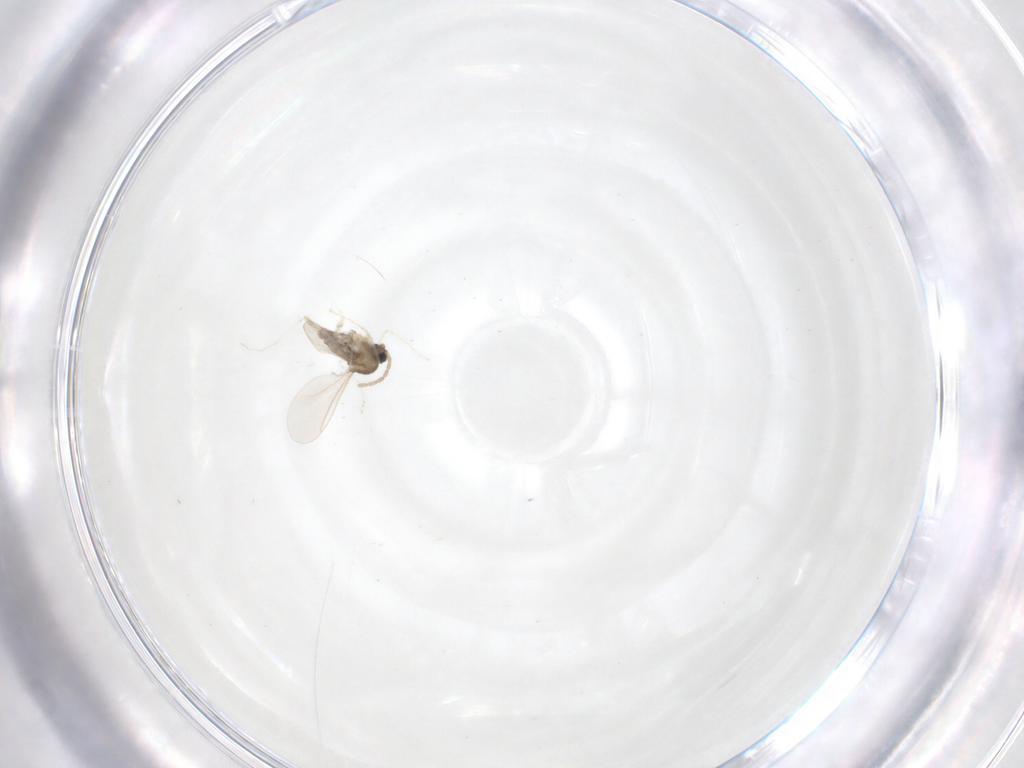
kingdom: Animalia
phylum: Arthropoda
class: Insecta
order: Diptera
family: Cecidomyiidae
